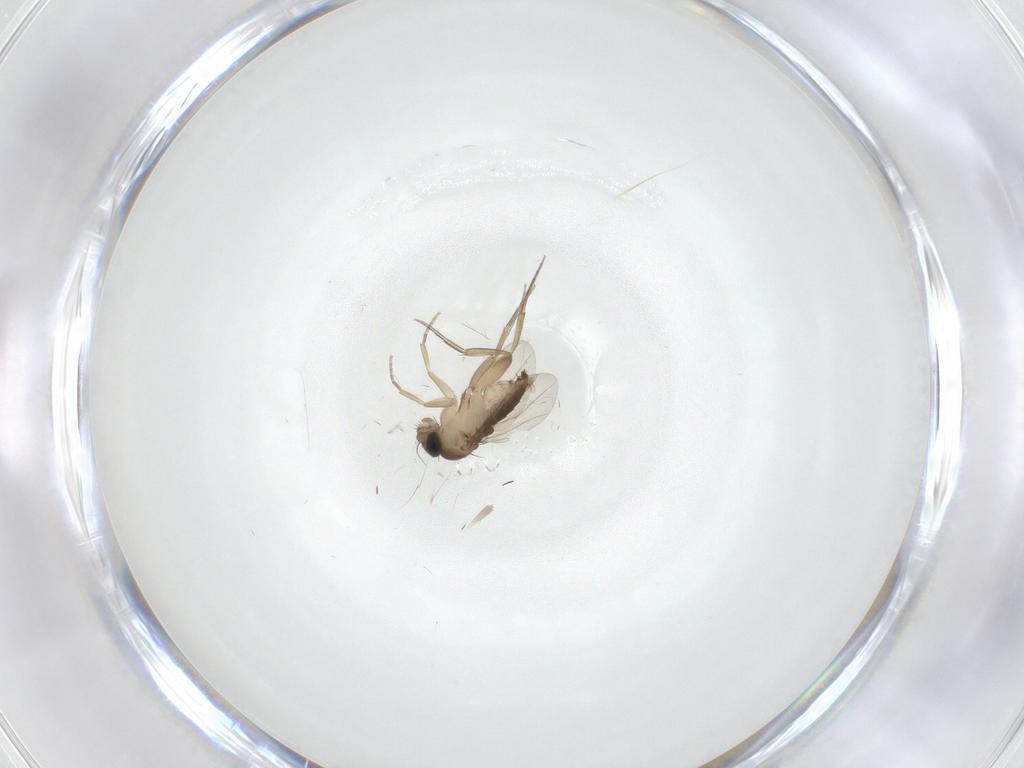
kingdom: Animalia
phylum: Arthropoda
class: Insecta
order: Diptera
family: Phoridae
